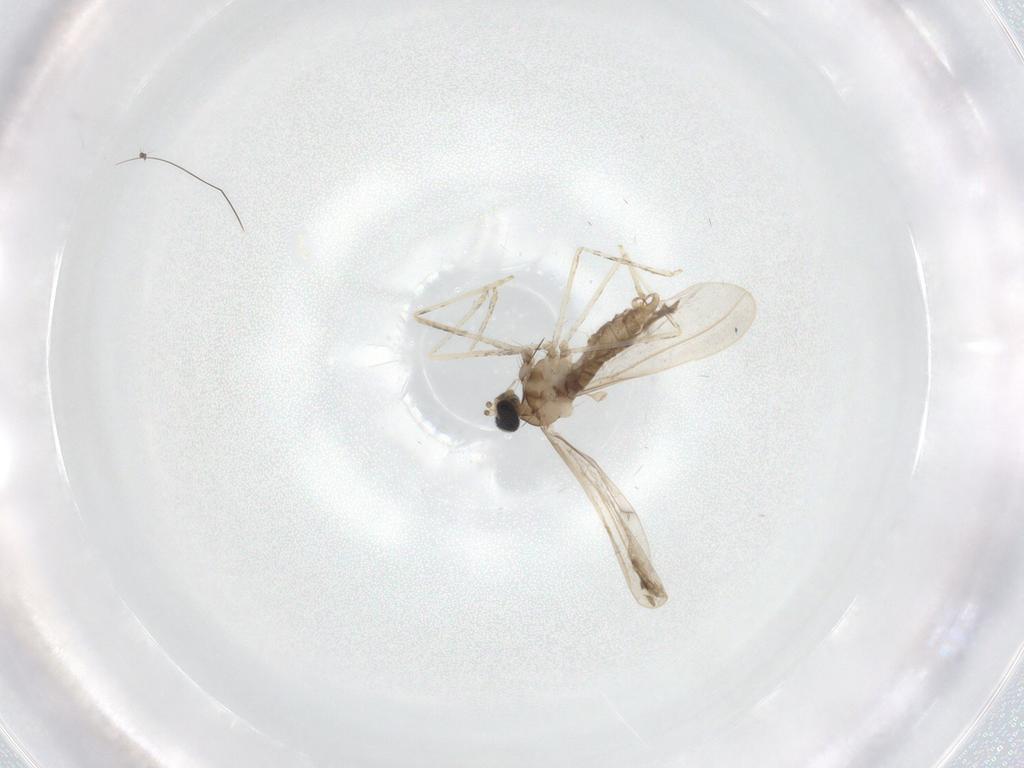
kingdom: Animalia
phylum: Arthropoda
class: Insecta
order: Diptera
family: Cecidomyiidae
